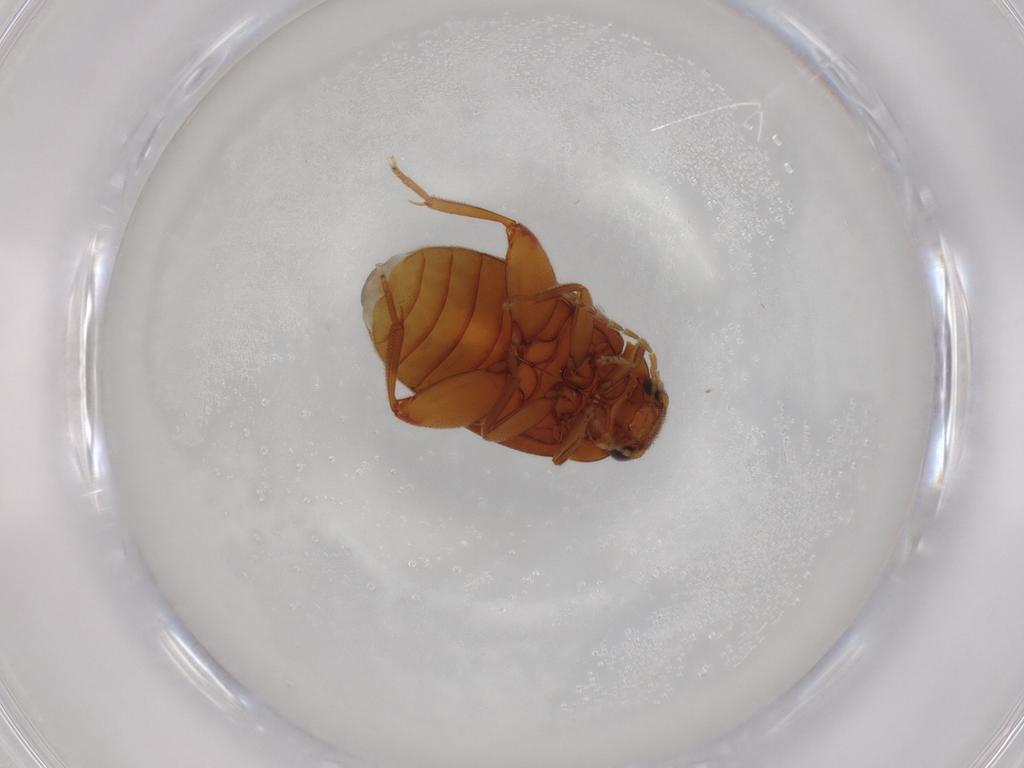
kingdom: Animalia
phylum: Arthropoda
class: Insecta
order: Coleoptera
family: Scirtidae
